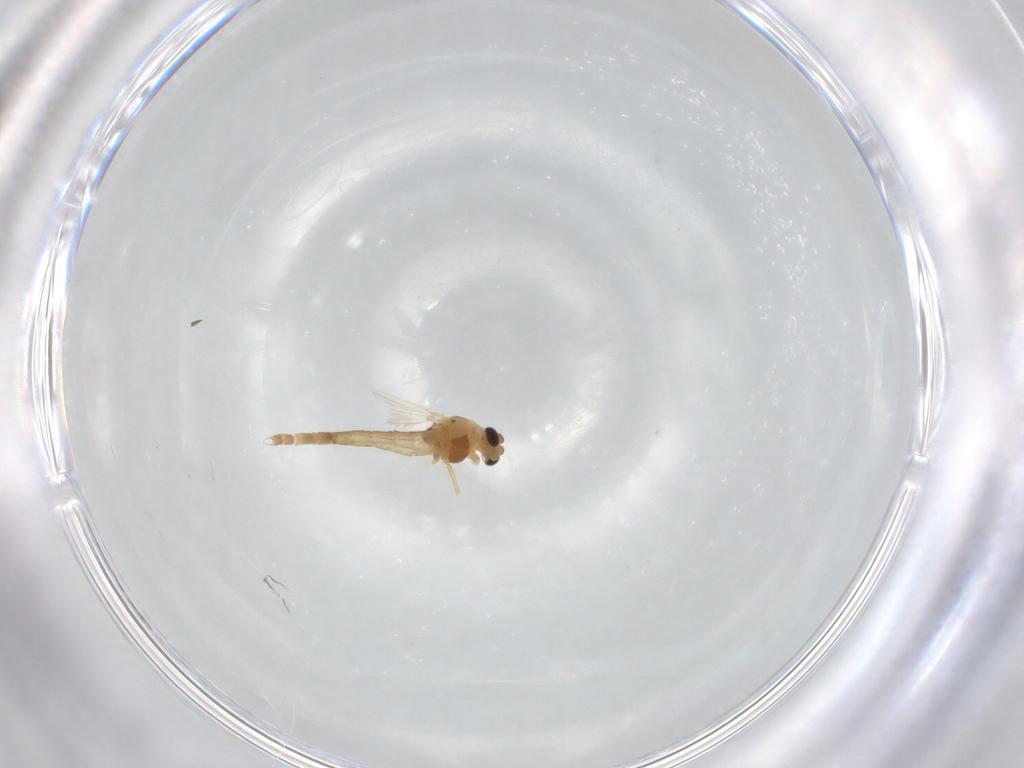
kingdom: Animalia
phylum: Arthropoda
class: Insecta
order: Diptera
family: Chironomidae
